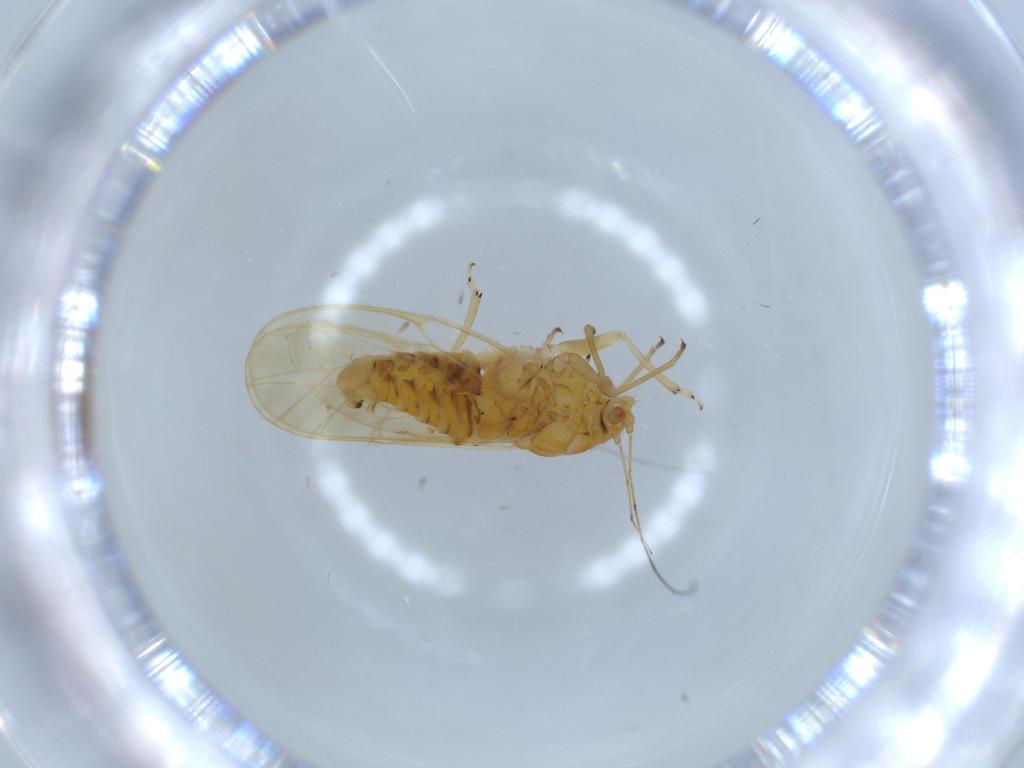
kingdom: Animalia
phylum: Arthropoda
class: Insecta
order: Hemiptera
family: Psyllidae
